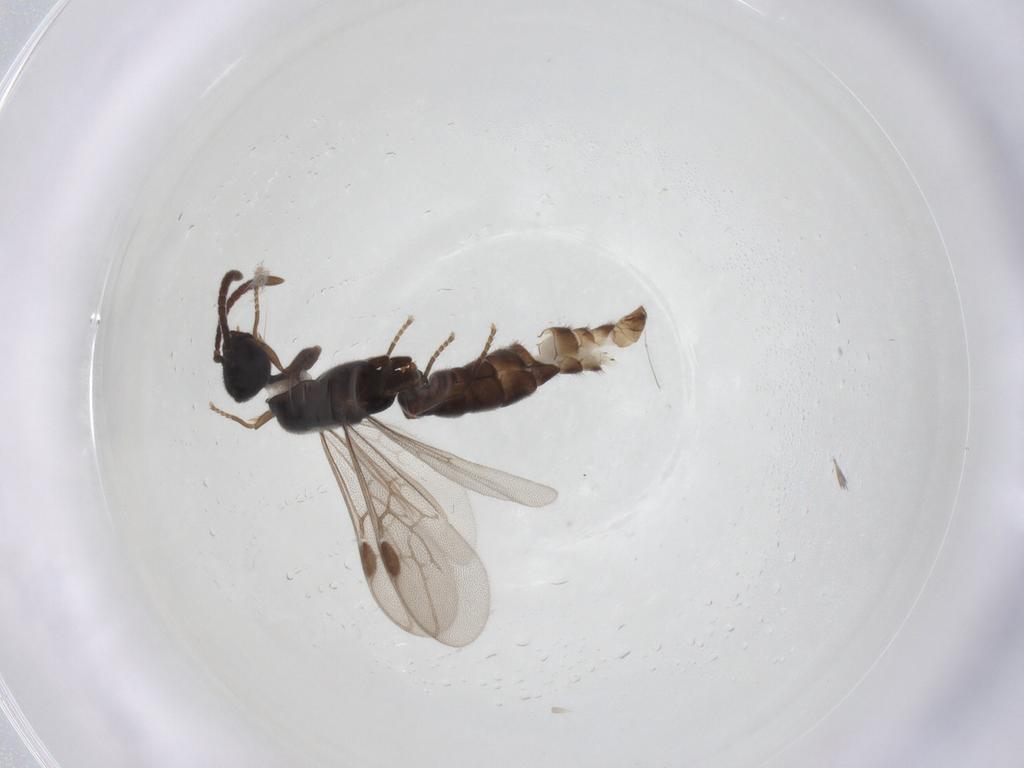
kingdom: Animalia
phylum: Arthropoda
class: Insecta
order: Hymenoptera
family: Formicidae
